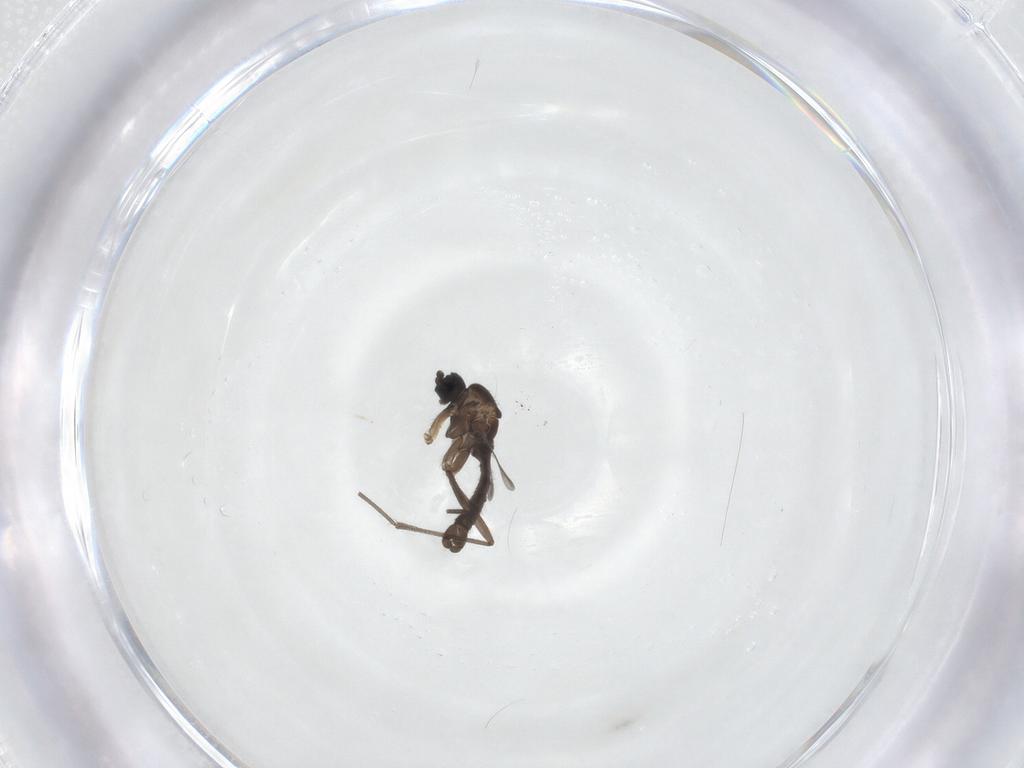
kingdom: Animalia
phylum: Arthropoda
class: Insecta
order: Diptera
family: Sciaridae
